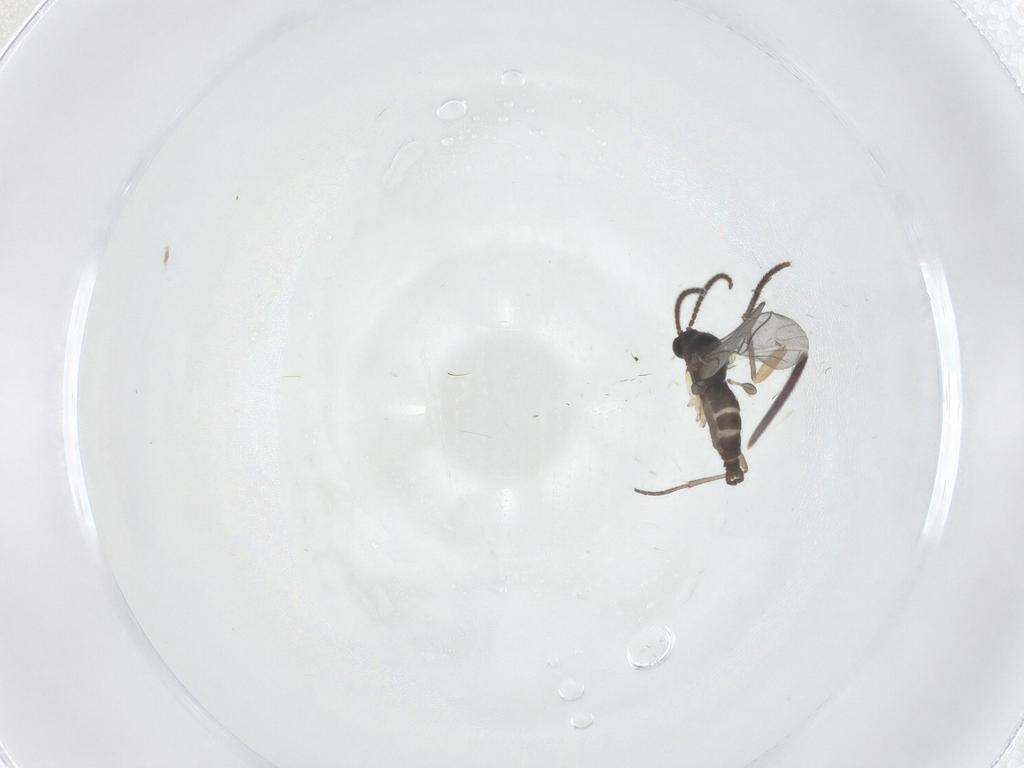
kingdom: Animalia
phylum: Arthropoda
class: Insecta
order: Diptera
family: Sciaridae
